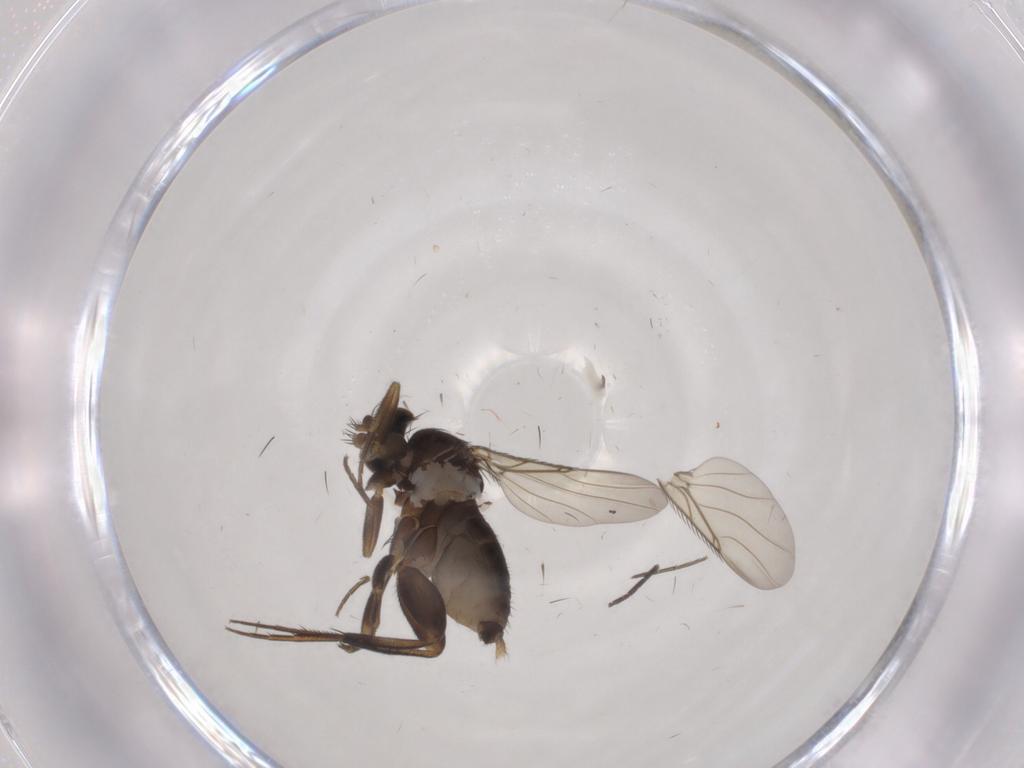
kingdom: Animalia
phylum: Arthropoda
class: Insecta
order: Diptera
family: Phoridae
